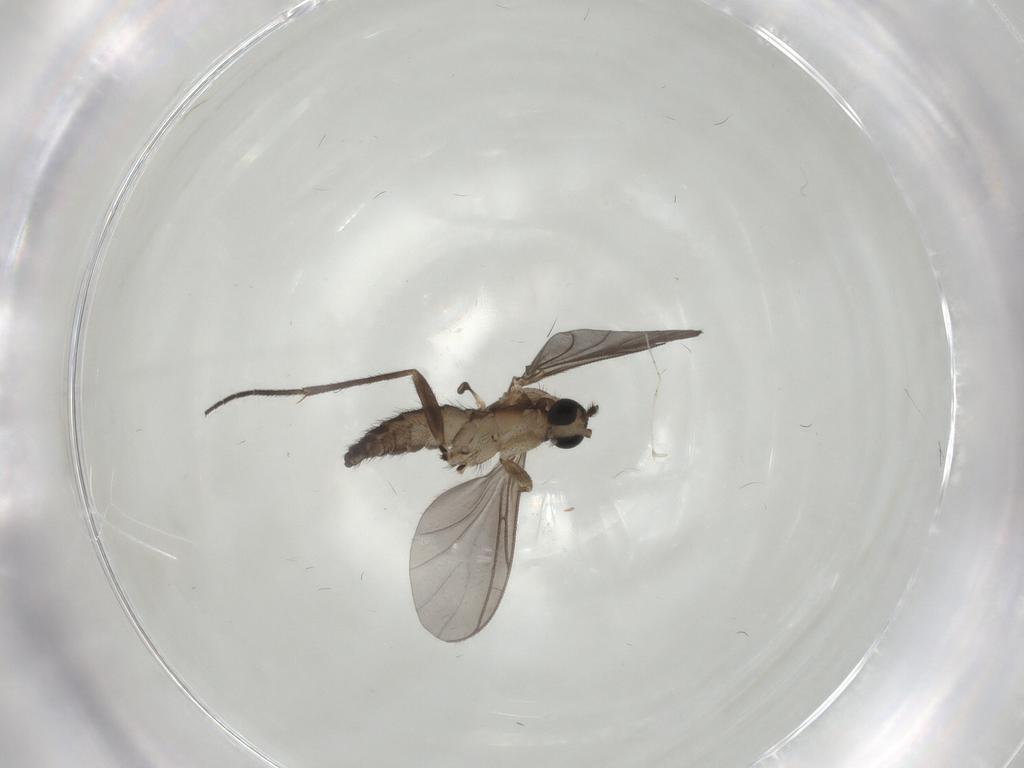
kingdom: Animalia
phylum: Arthropoda
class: Insecta
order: Diptera
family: Sciaridae
